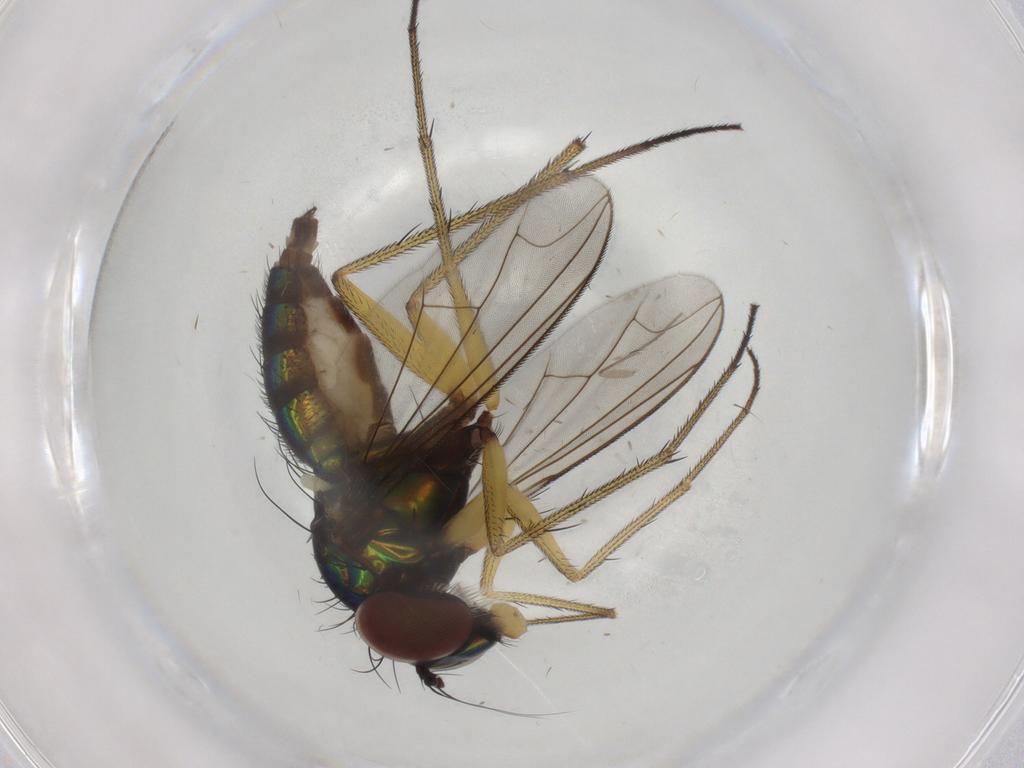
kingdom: Animalia
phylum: Arthropoda
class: Insecta
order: Diptera
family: Dolichopodidae
